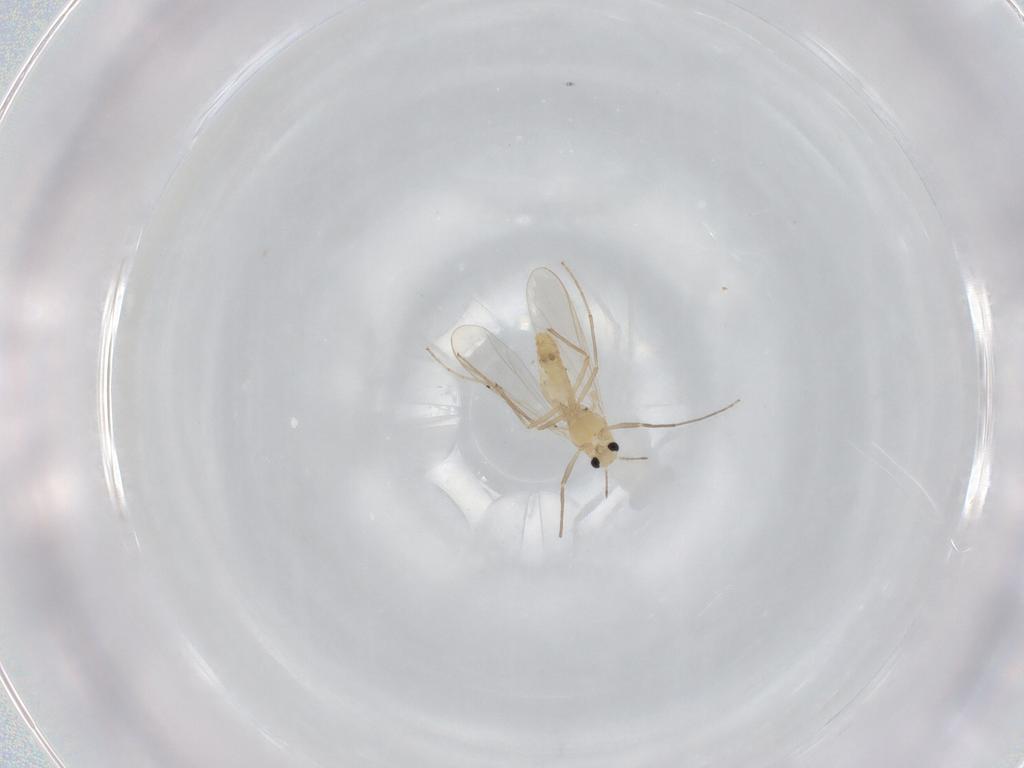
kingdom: Animalia
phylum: Arthropoda
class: Insecta
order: Diptera
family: Chironomidae
